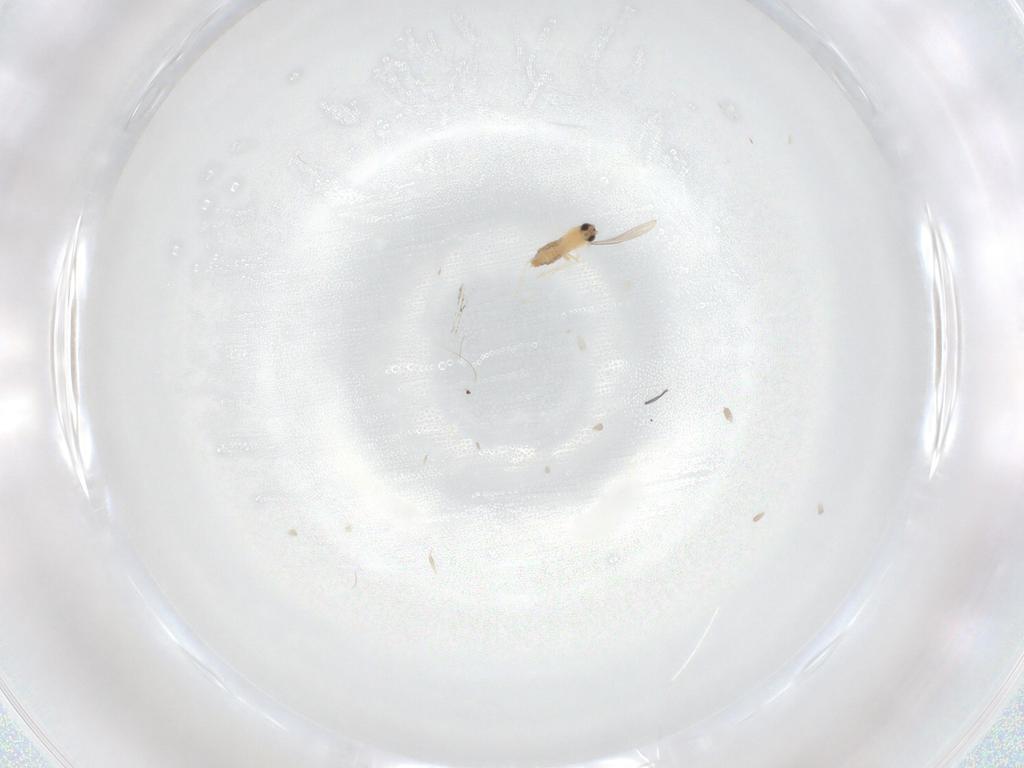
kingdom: Animalia
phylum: Arthropoda
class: Insecta
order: Diptera
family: Cecidomyiidae
